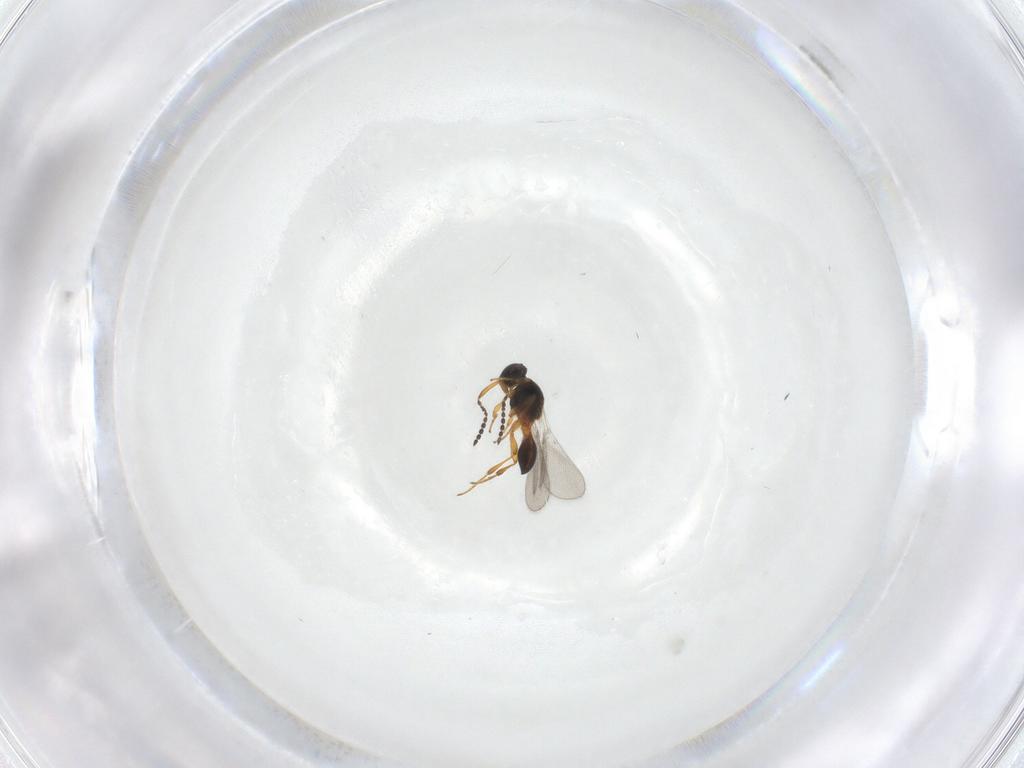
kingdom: Animalia
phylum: Arthropoda
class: Insecta
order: Hymenoptera
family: Platygastridae
